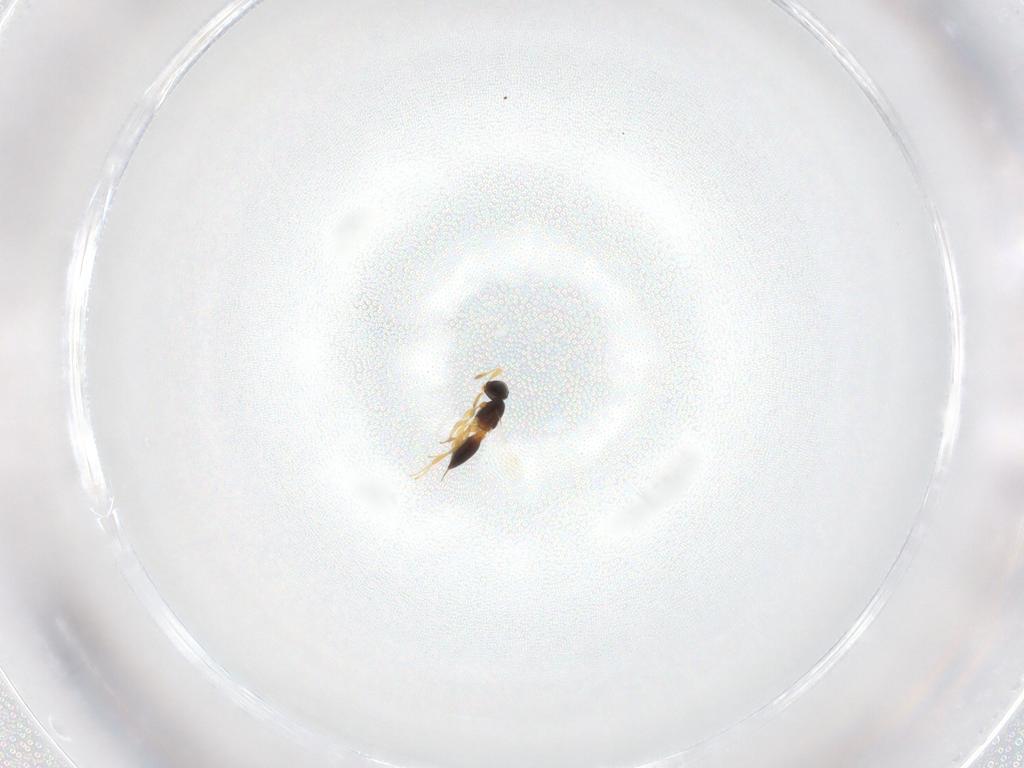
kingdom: Animalia
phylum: Arthropoda
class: Insecta
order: Hymenoptera
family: Platygastridae
